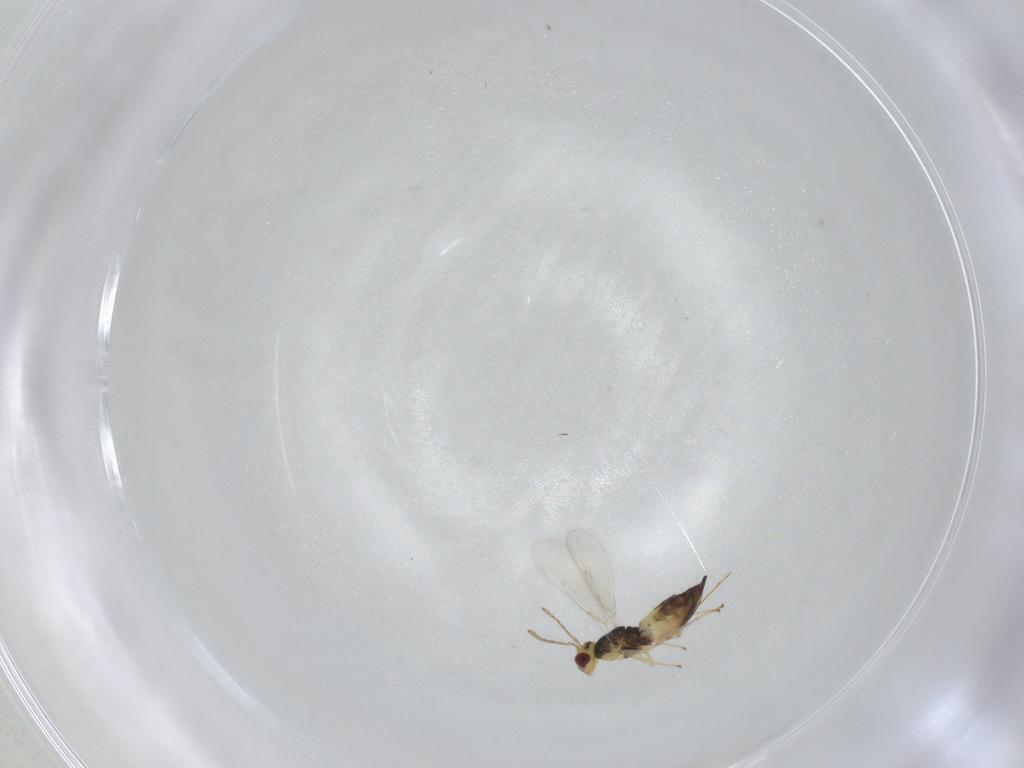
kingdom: Animalia
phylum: Arthropoda
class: Insecta
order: Hymenoptera
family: Eulophidae
